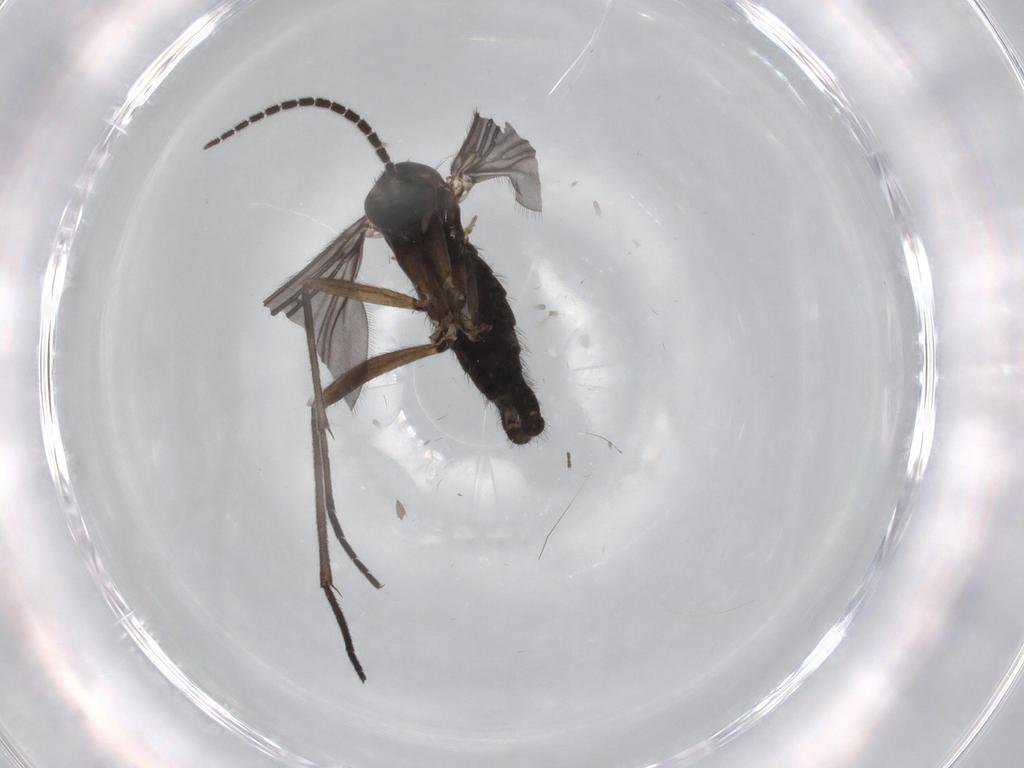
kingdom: Animalia
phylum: Arthropoda
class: Insecta
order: Diptera
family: Sciaridae
